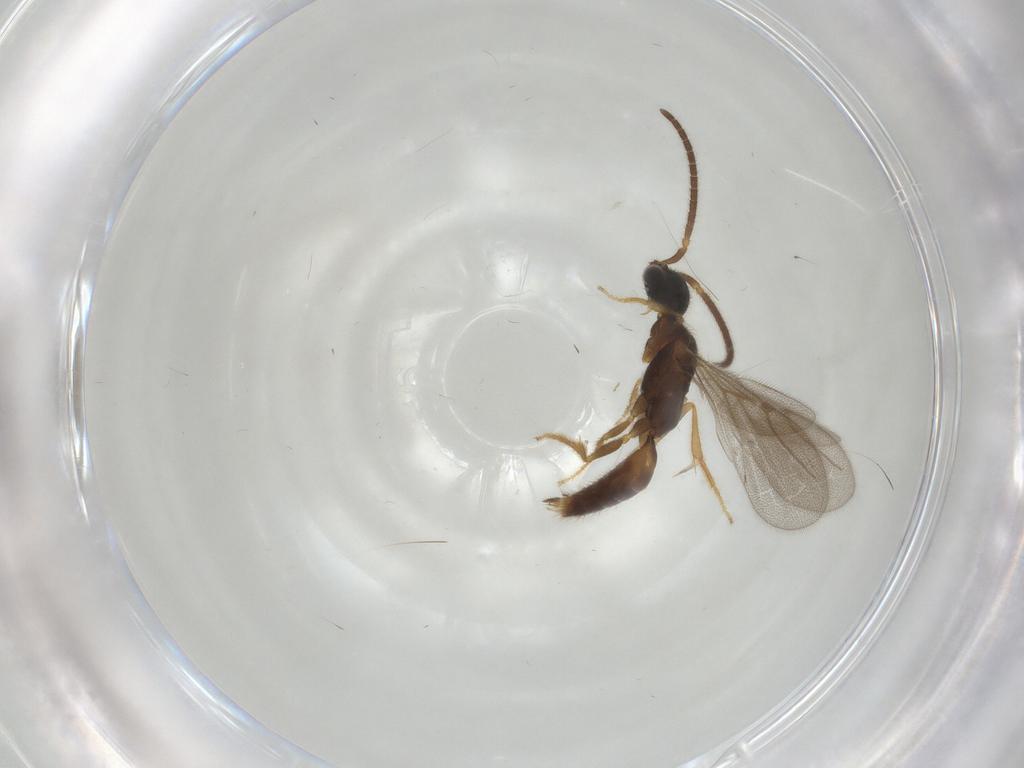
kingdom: Animalia
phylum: Arthropoda
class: Insecta
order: Hymenoptera
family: Bethylidae
